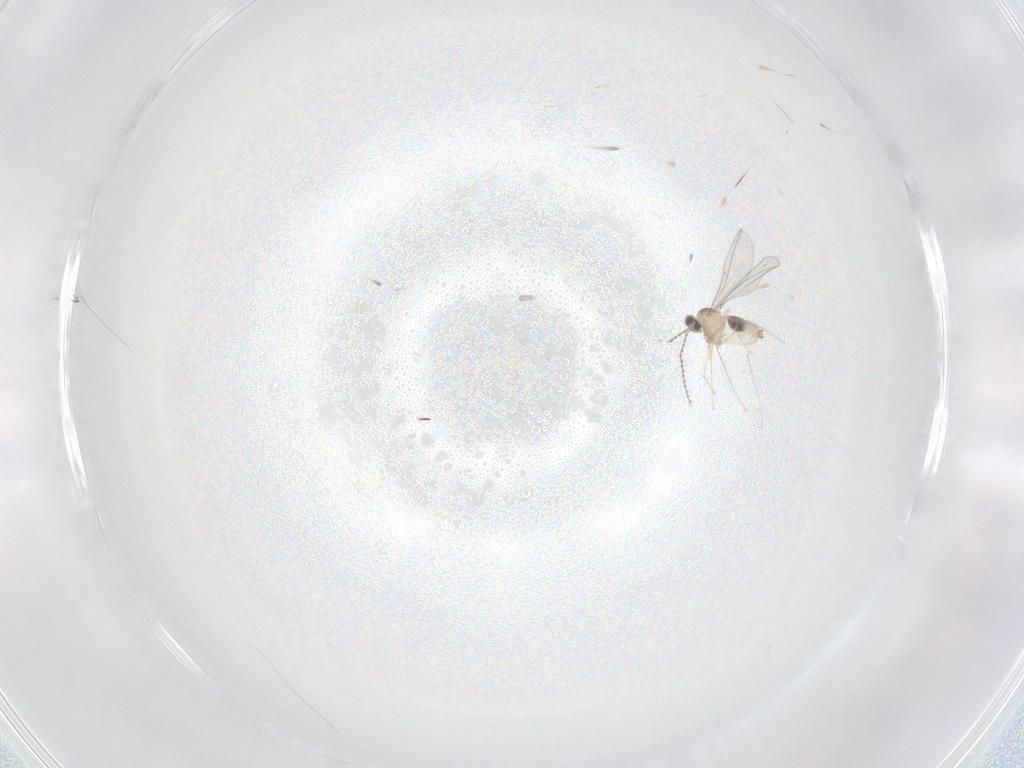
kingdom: Animalia
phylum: Arthropoda
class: Insecta
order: Diptera
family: Cecidomyiidae
